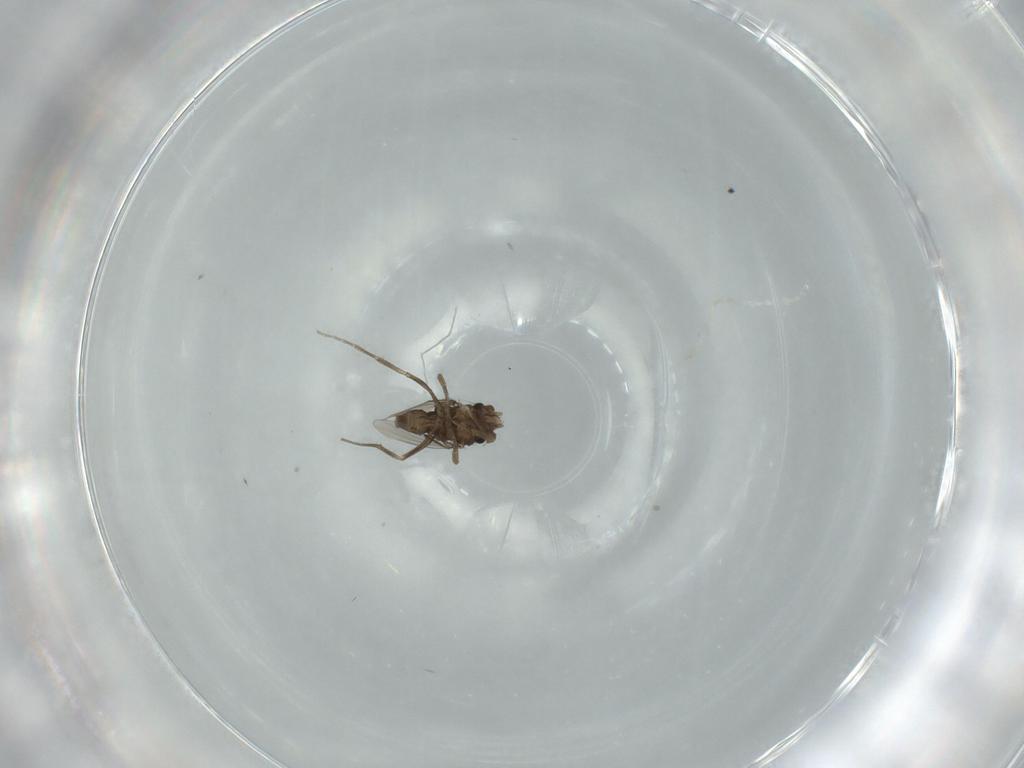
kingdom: Animalia
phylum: Arthropoda
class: Insecta
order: Diptera
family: Phoridae
